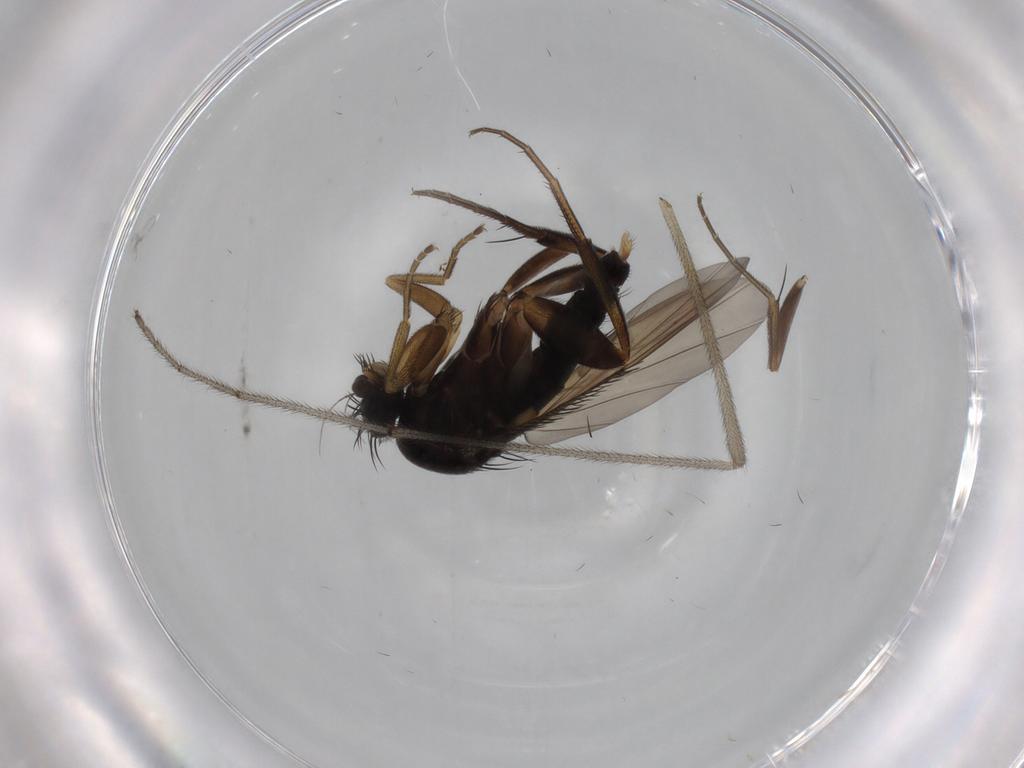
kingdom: Animalia
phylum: Arthropoda
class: Insecta
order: Diptera
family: Phoridae
